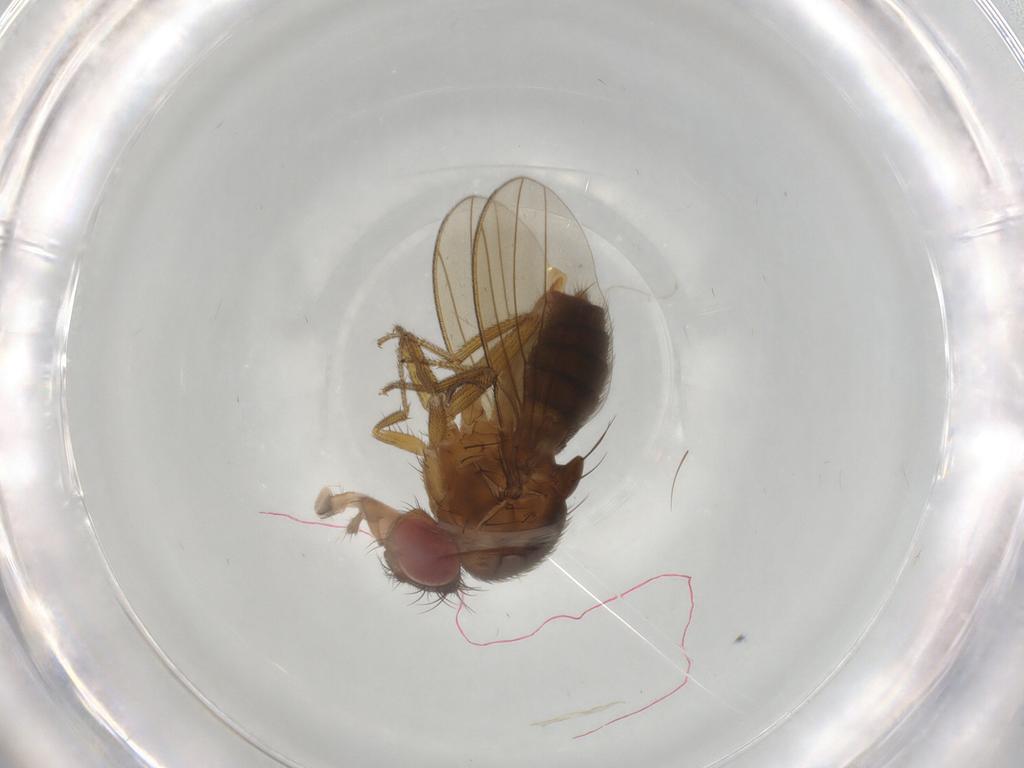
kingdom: Animalia
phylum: Arthropoda
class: Insecta
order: Diptera
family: Drosophilidae
